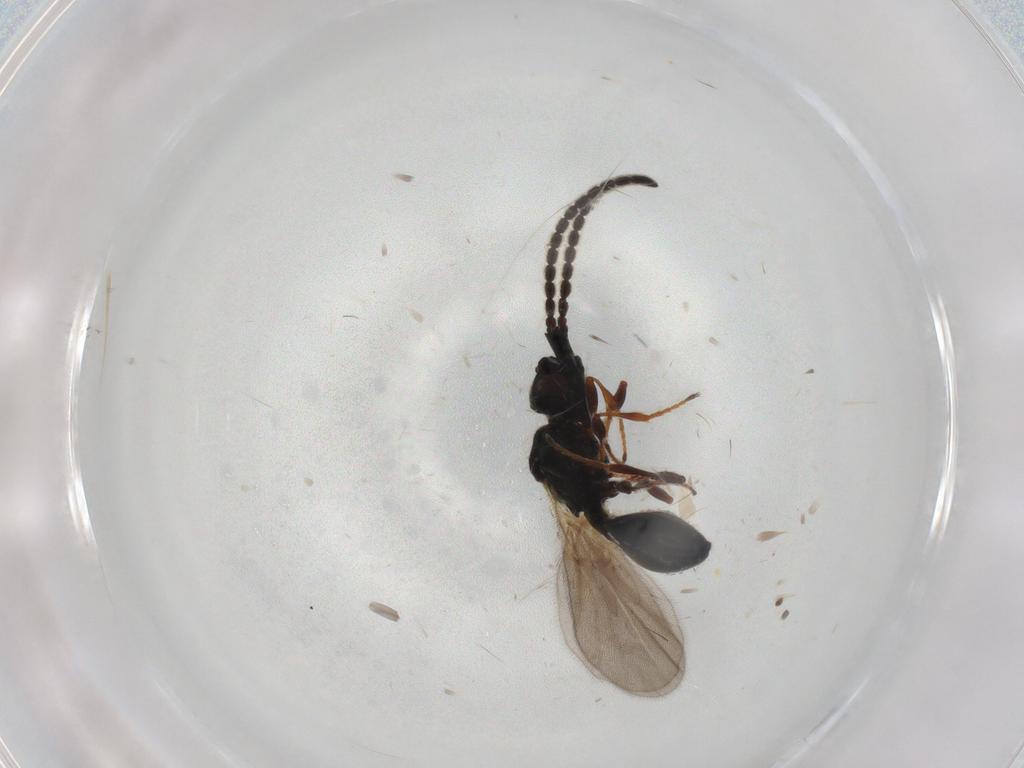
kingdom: Animalia
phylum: Arthropoda
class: Insecta
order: Hymenoptera
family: Diapriidae
